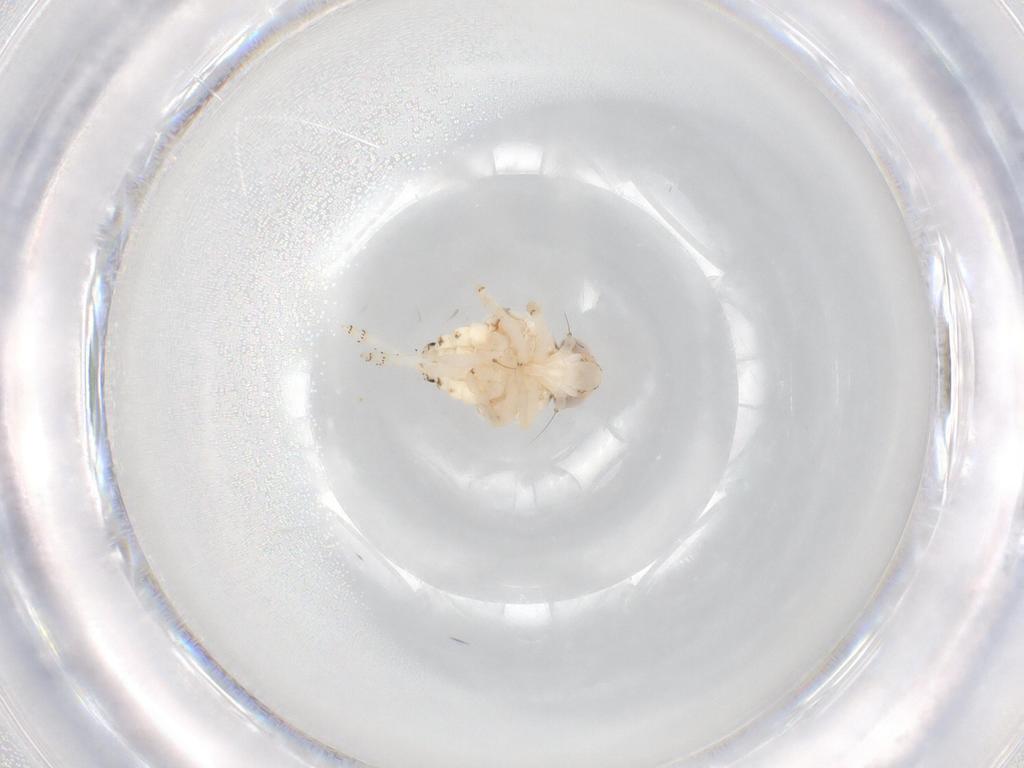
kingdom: Animalia
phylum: Arthropoda
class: Insecta
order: Hemiptera
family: Nogodinidae
